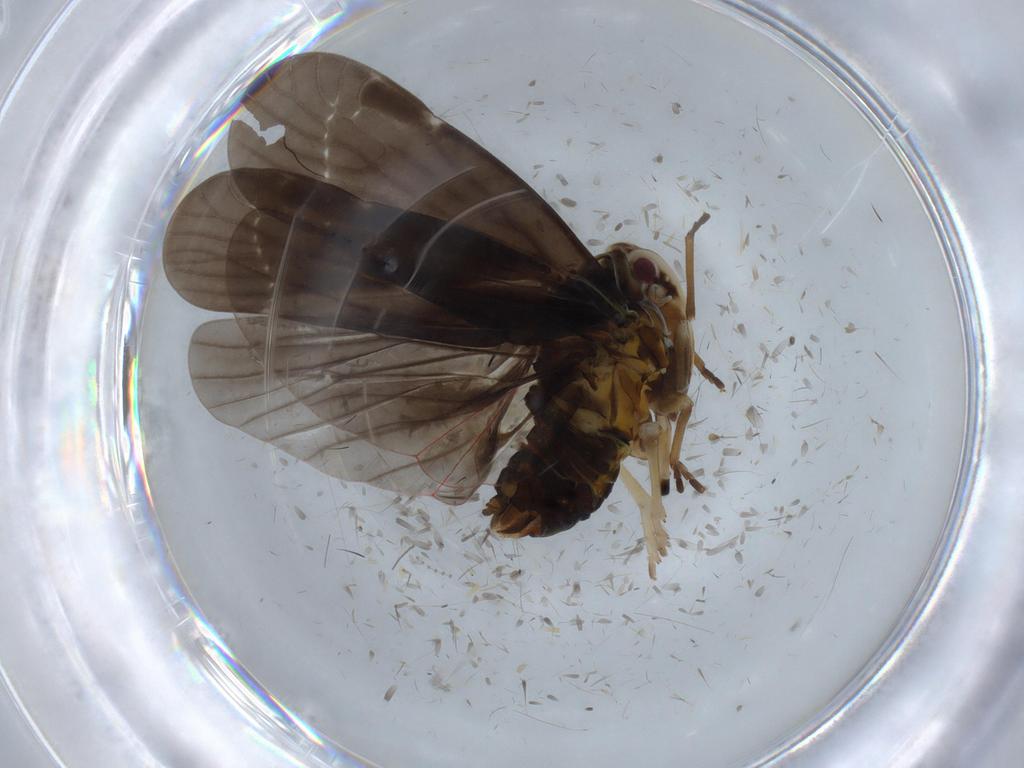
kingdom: Animalia
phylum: Arthropoda
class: Insecta
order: Hemiptera
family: Derbidae
